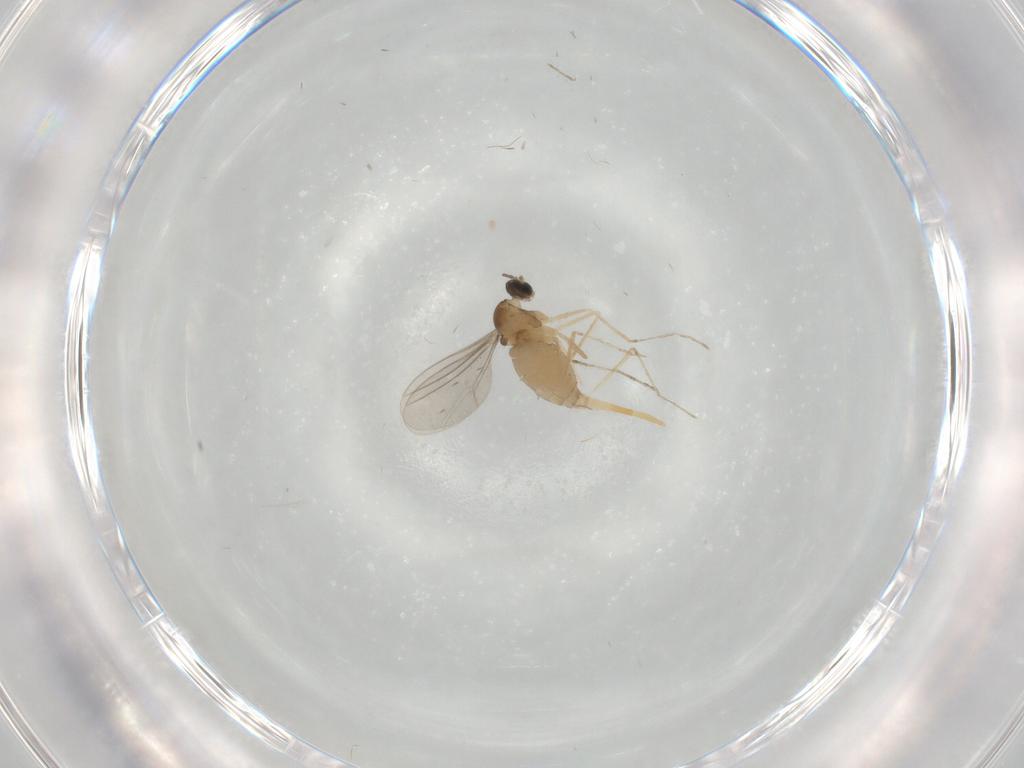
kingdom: Animalia
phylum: Arthropoda
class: Insecta
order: Diptera
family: Cecidomyiidae
